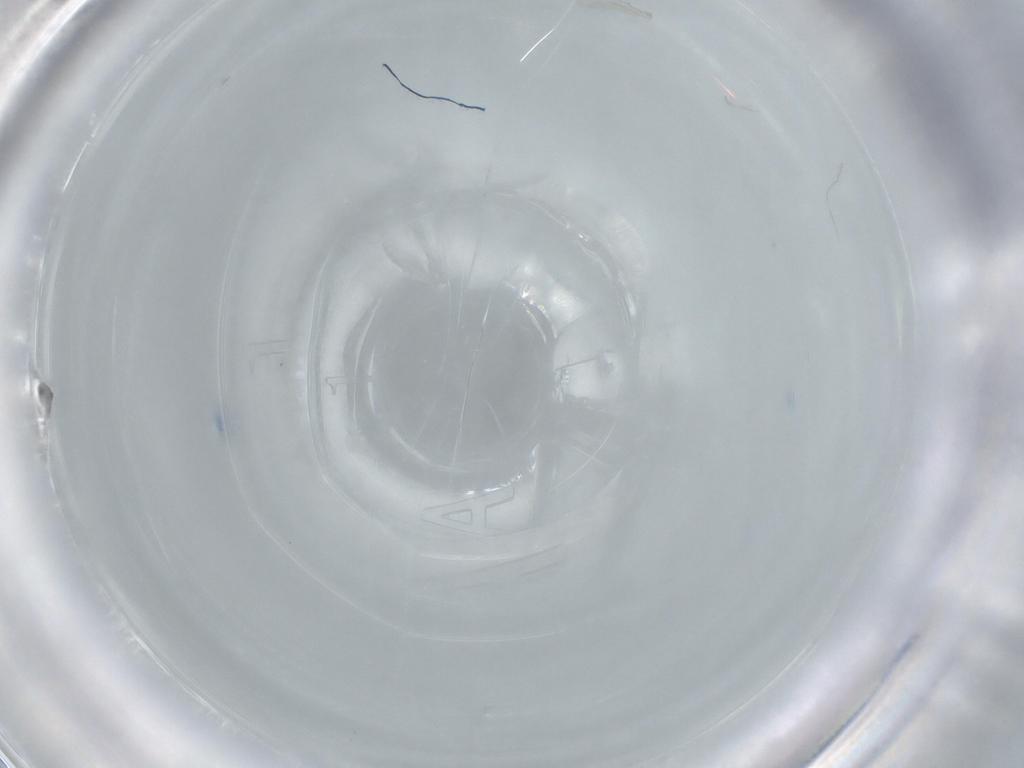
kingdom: Animalia
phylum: Arthropoda
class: Insecta
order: Diptera
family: Cecidomyiidae
